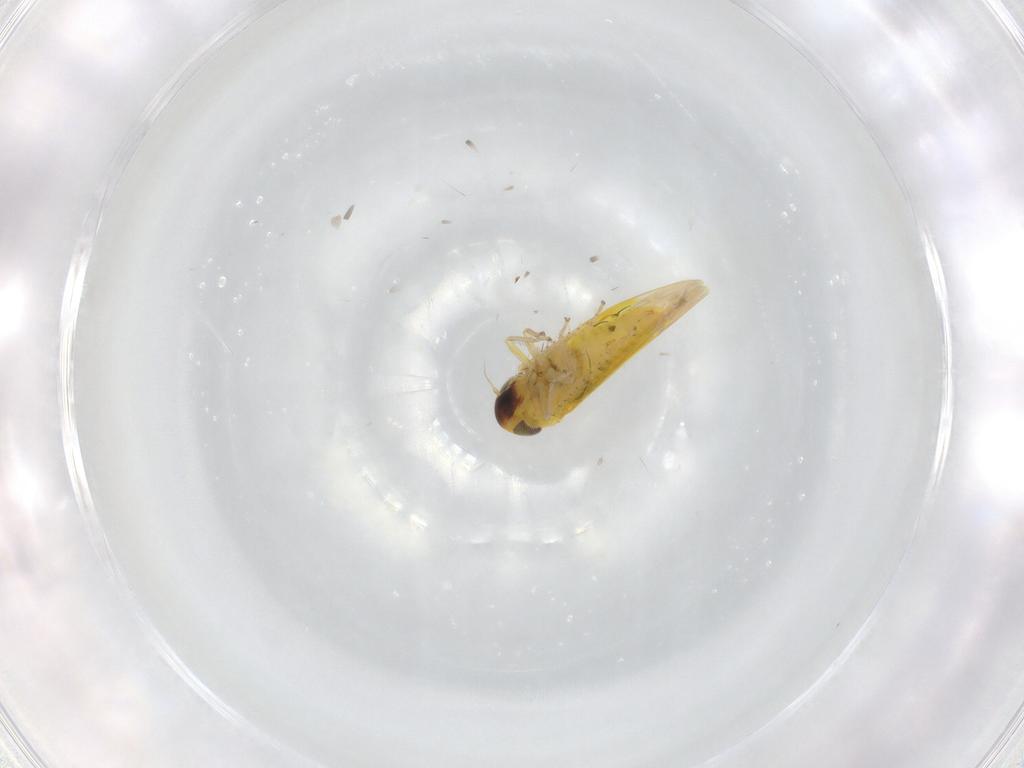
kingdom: Animalia
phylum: Arthropoda
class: Insecta
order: Hemiptera
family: Cicadellidae
